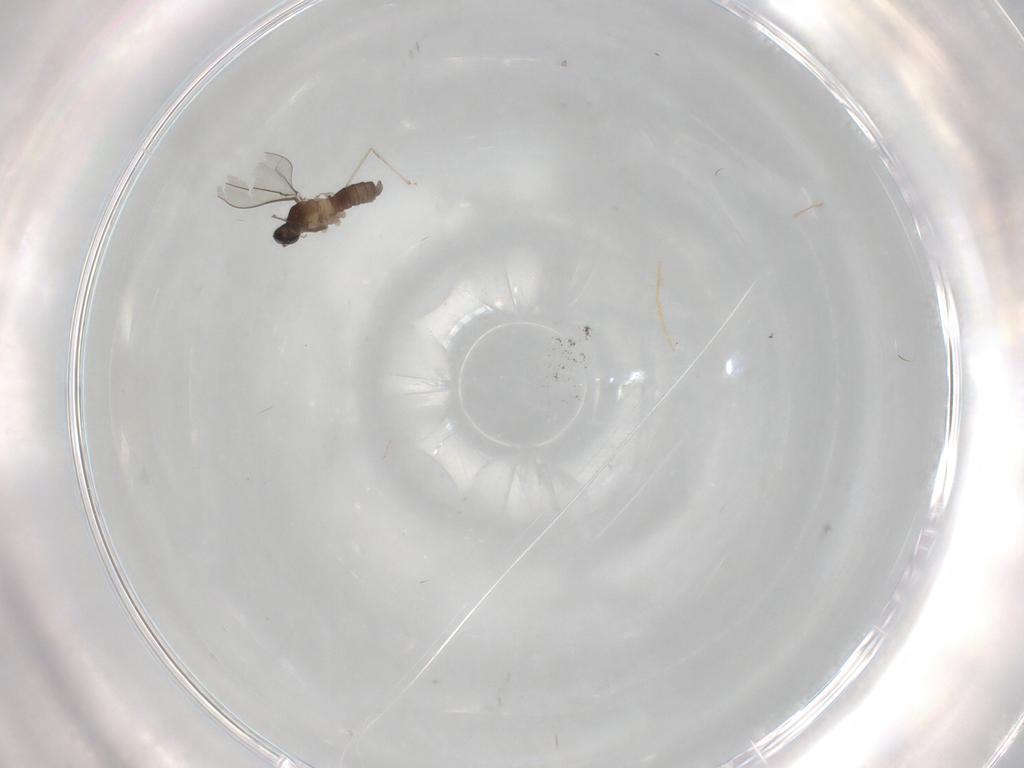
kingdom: Animalia
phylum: Arthropoda
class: Insecta
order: Diptera
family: Cecidomyiidae
